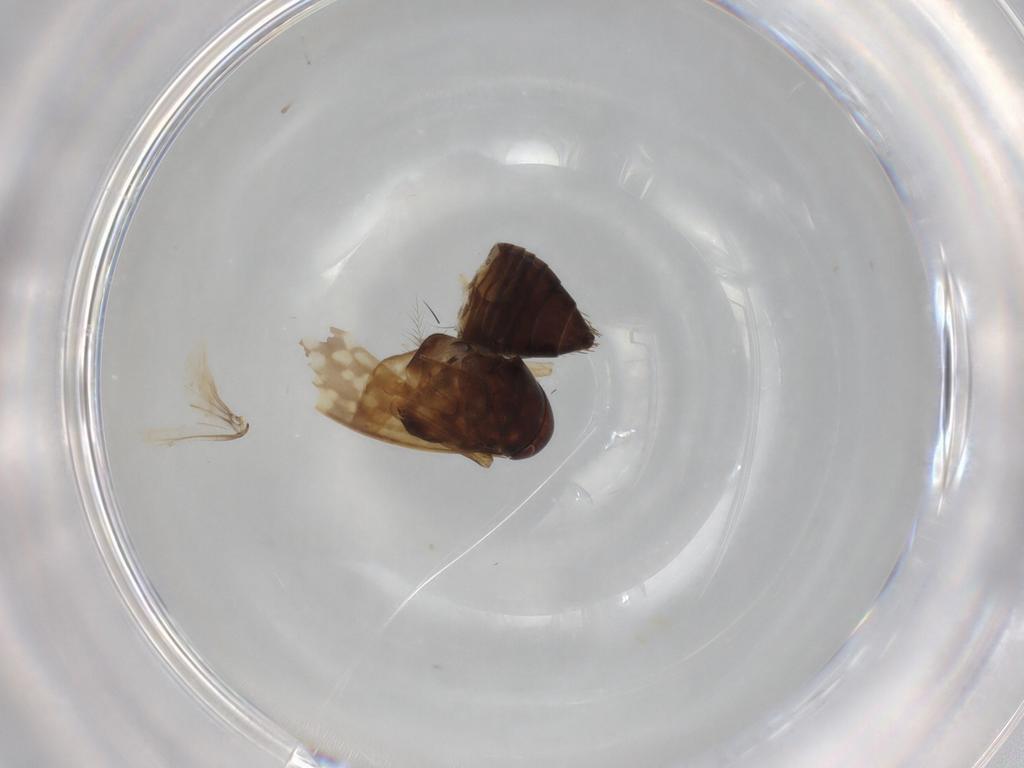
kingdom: Animalia
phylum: Arthropoda
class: Insecta
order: Hemiptera
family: Cicadellidae
